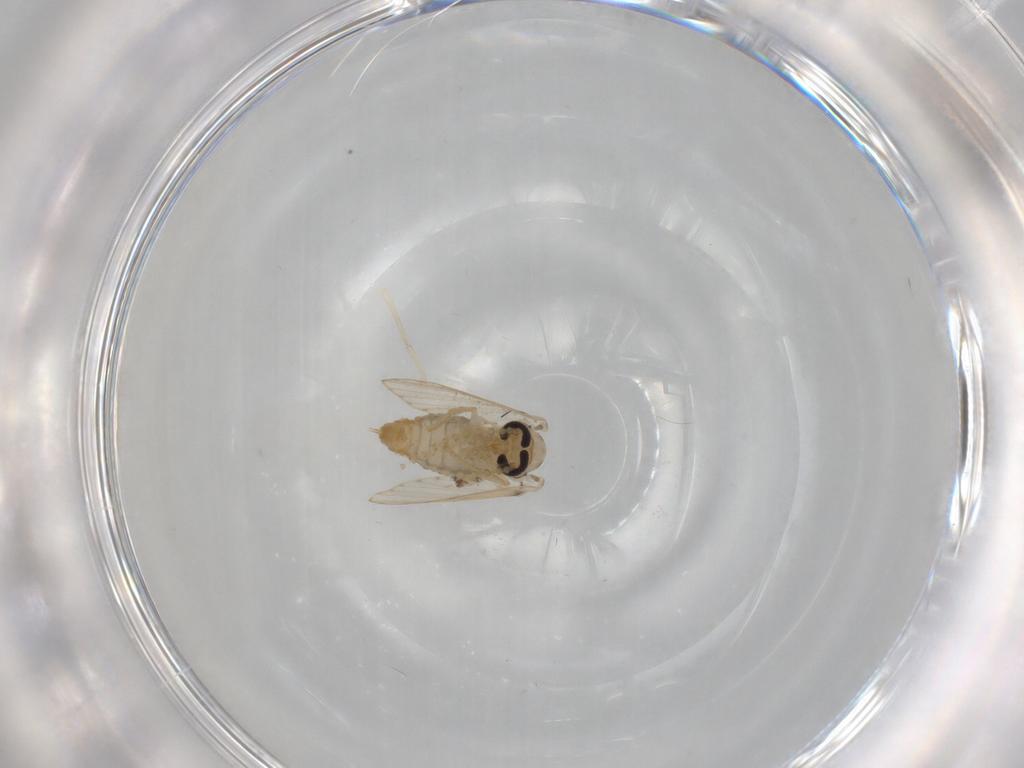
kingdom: Animalia
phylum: Arthropoda
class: Insecta
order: Diptera
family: Psychodidae
